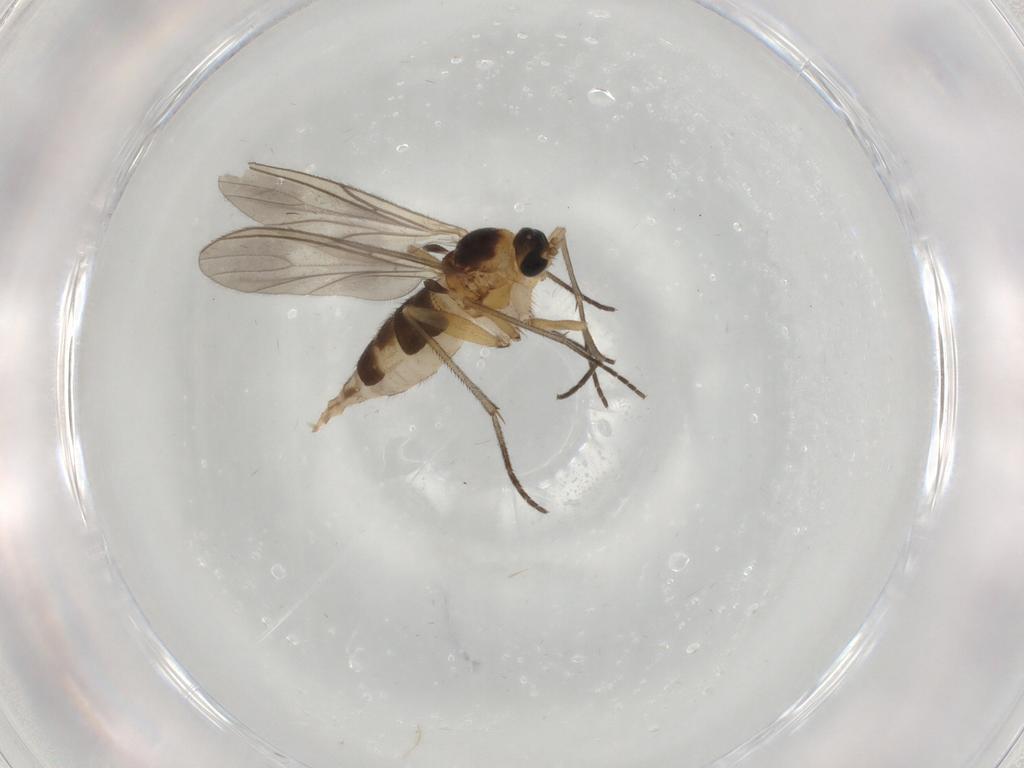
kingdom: Animalia
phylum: Arthropoda
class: Insecta
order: Diptera
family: Sciaridae
